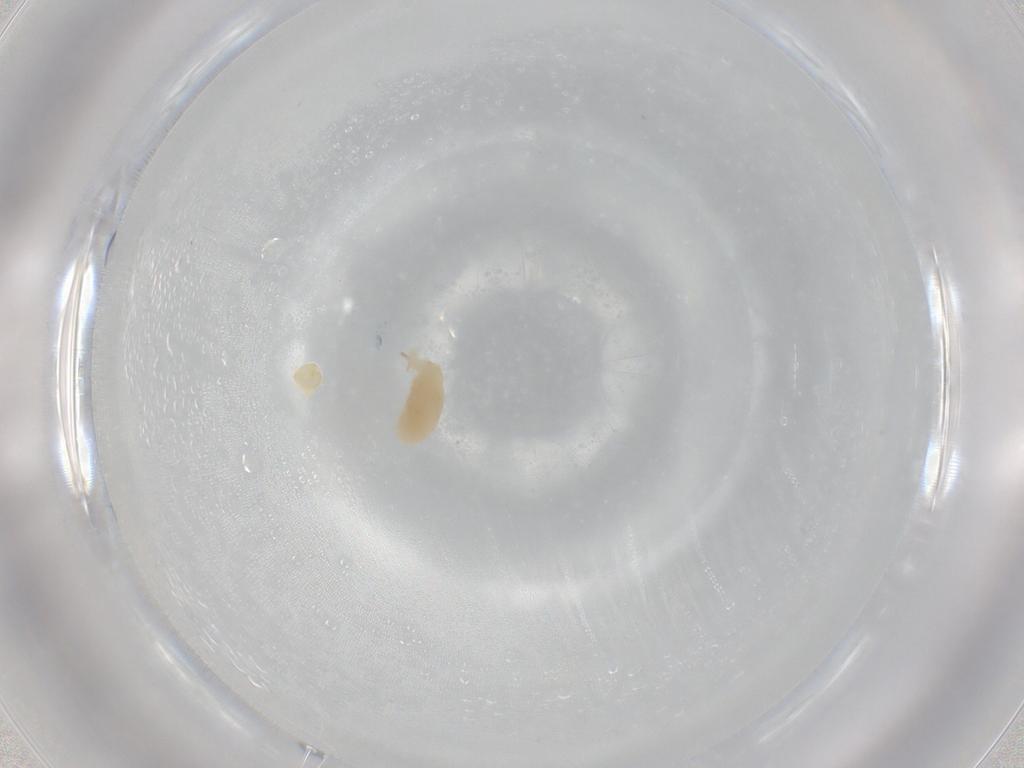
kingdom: Animalia
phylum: Arthropoda
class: Arachnida
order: Trombidiformes
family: Bdellidae
